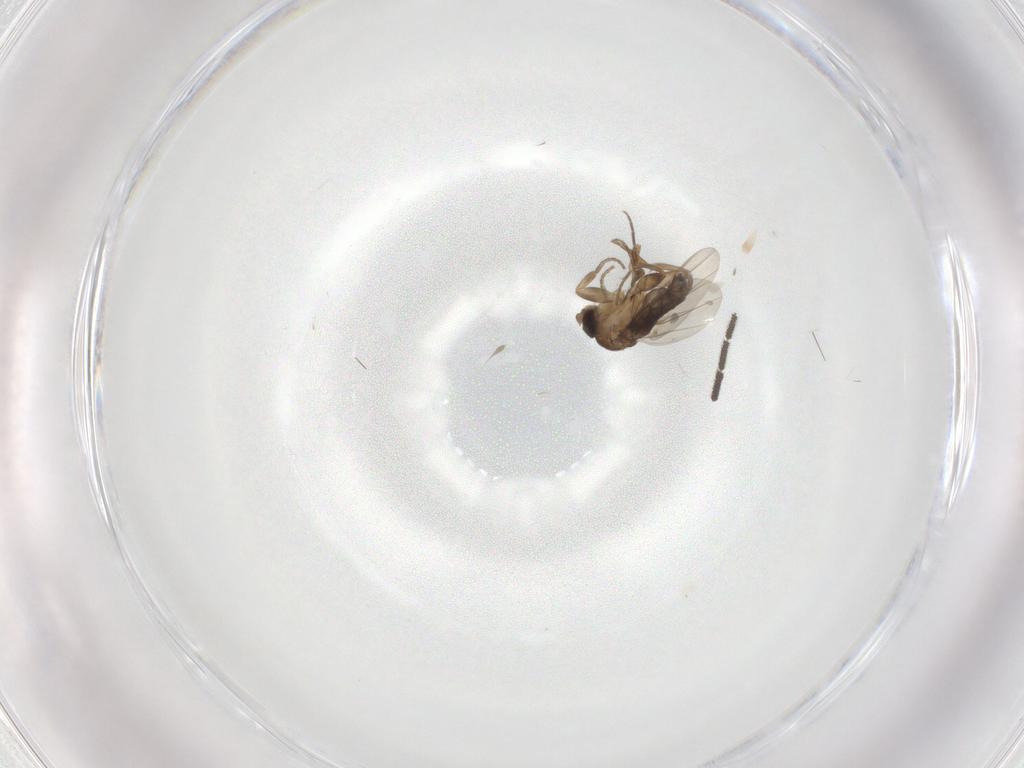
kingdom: Animalia
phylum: Arthropoda
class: Insecta
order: Diptera
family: Sciaridae
